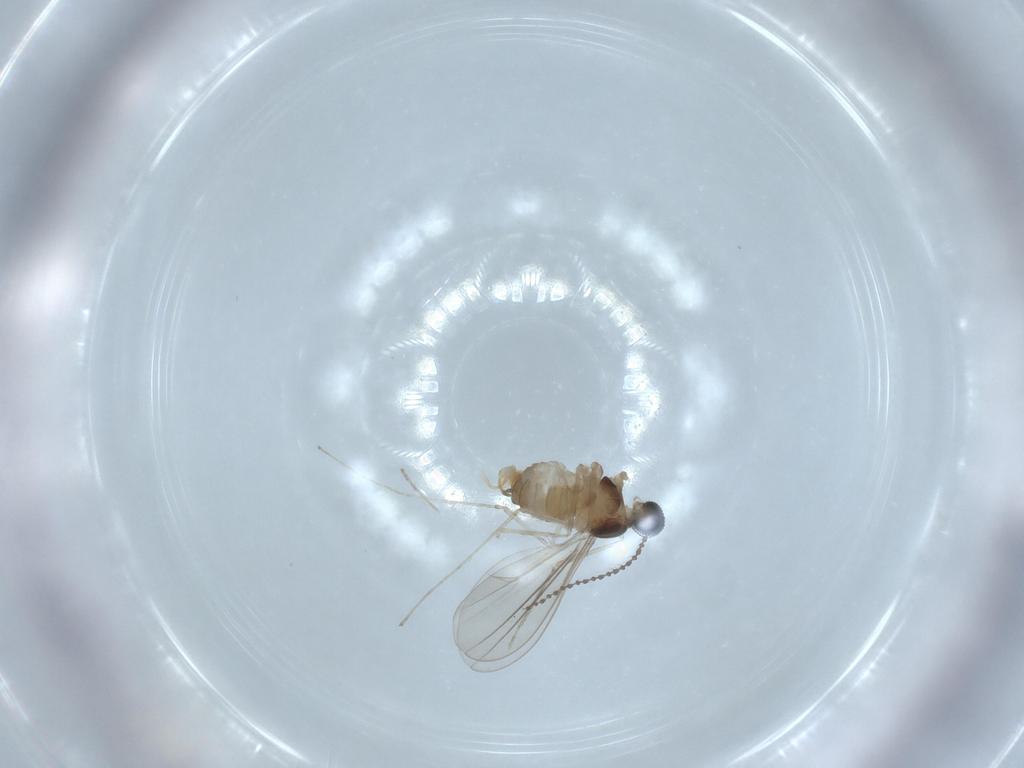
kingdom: Animalia
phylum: Arthropoda
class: Insecta
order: Diptera
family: Cecidomyiidae
